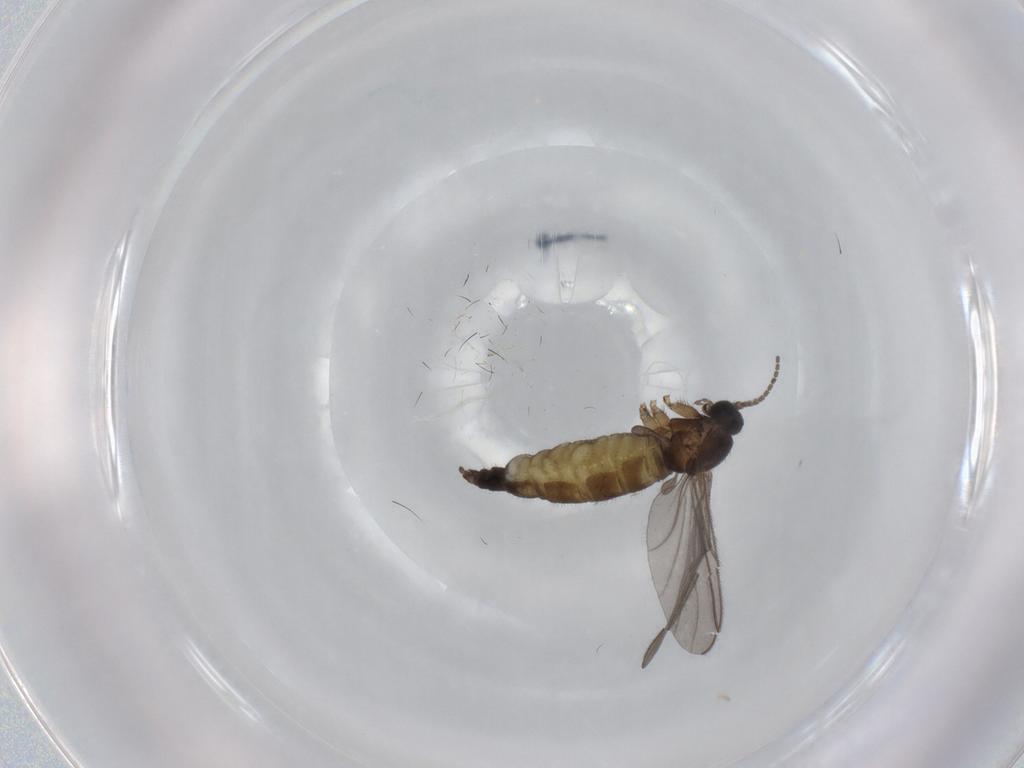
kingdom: Animalia
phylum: Arthropoda
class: Insecta
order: Diptera
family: Sciaridae
